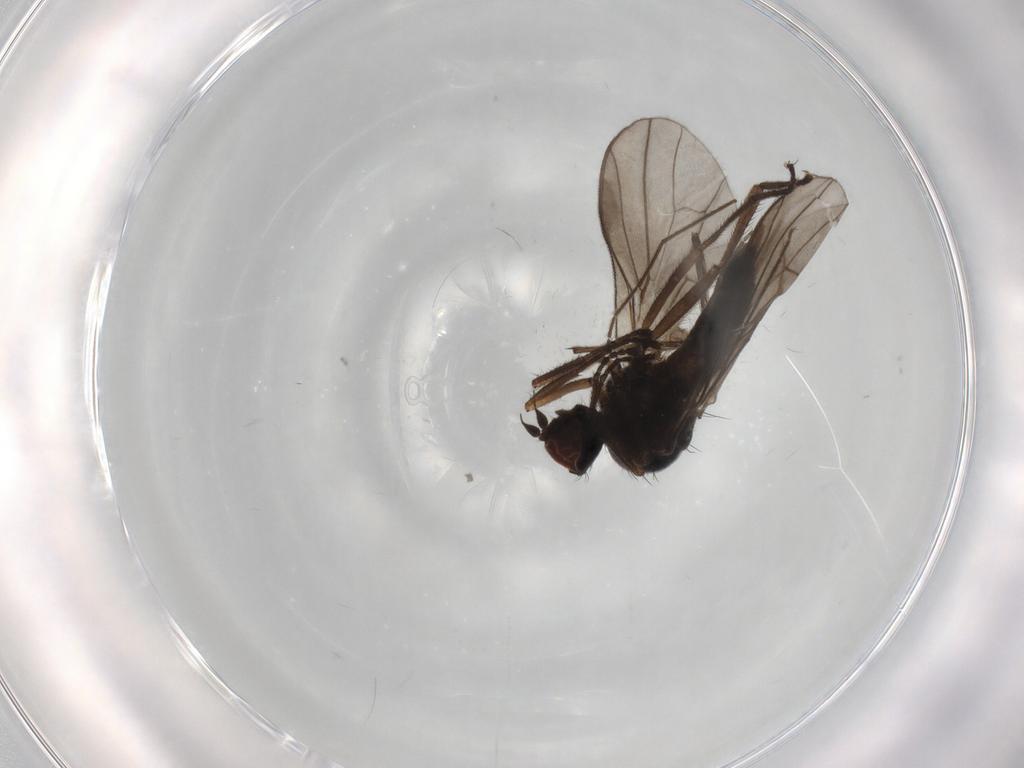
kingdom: Animalia
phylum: Arthropoda
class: Insecta
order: Diptera
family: Hybotidae
